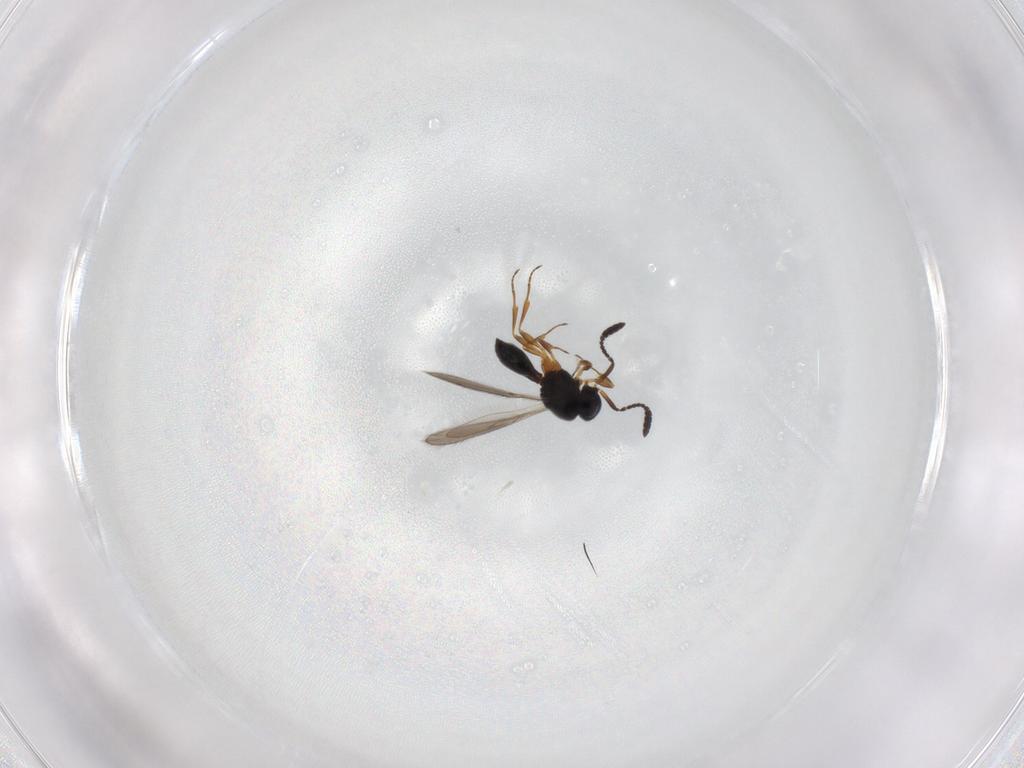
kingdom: Animalia
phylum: Arthropoda
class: Insecta
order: Hymenoptera
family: Scelionidae
